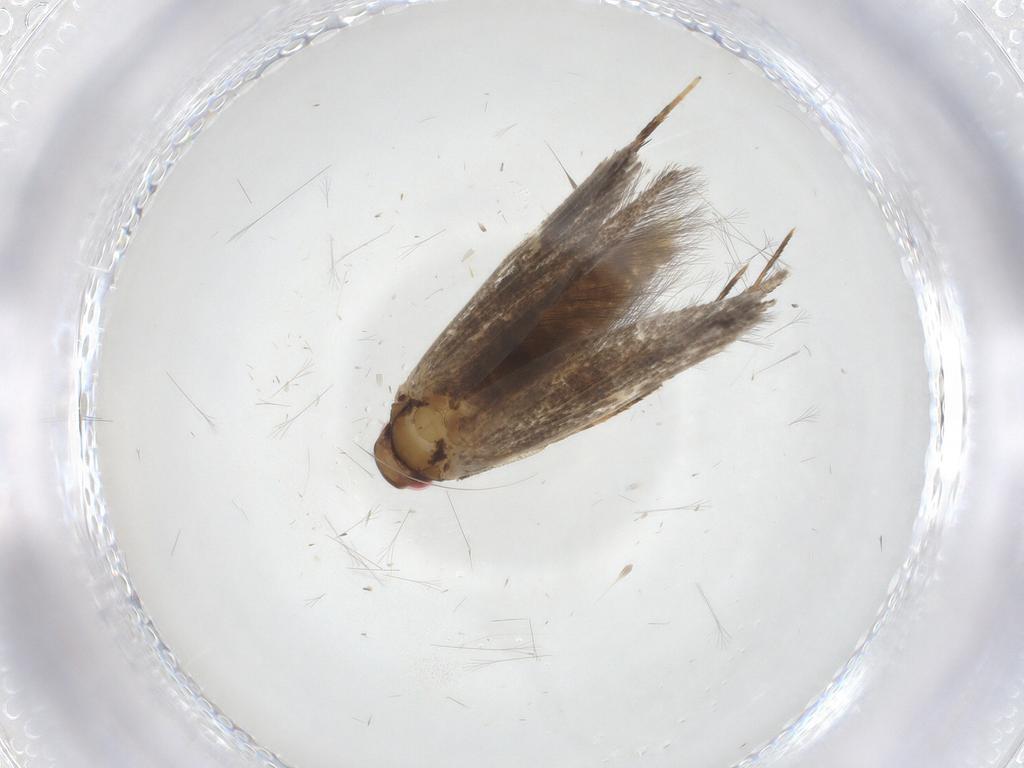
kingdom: Animalia
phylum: Arthropoda
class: Insecta
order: Lepidoptera
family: Gelechiidae
